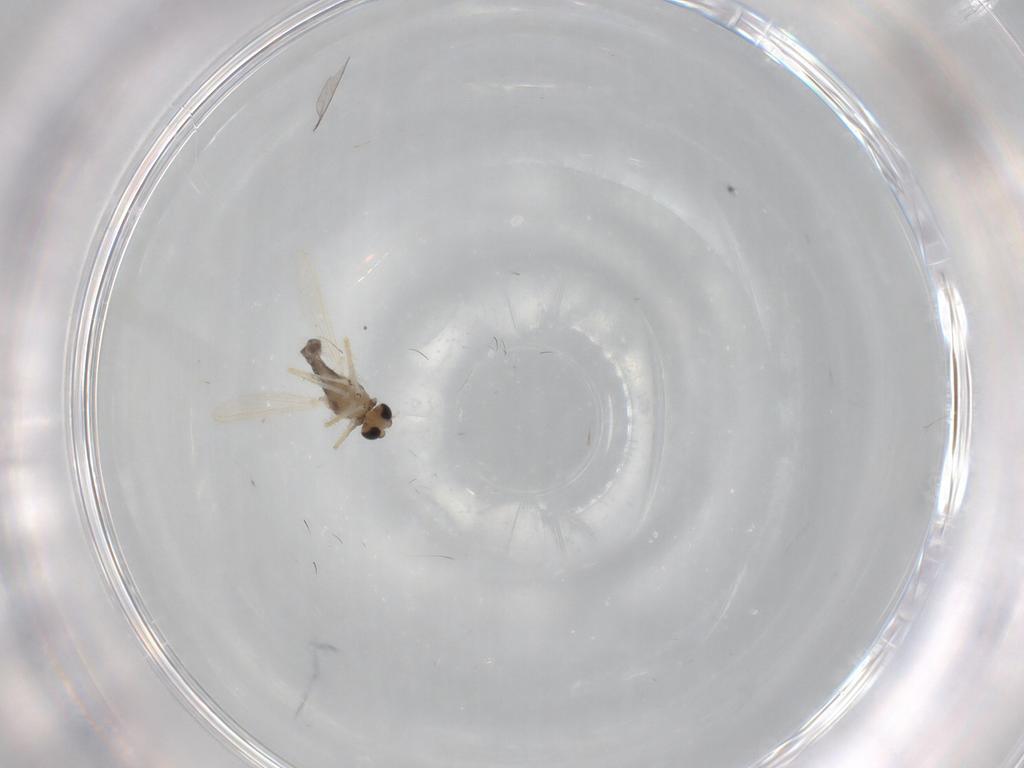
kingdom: Animalia
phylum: Arthropoda
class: Insecta
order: Diptera
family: Chironomidae
